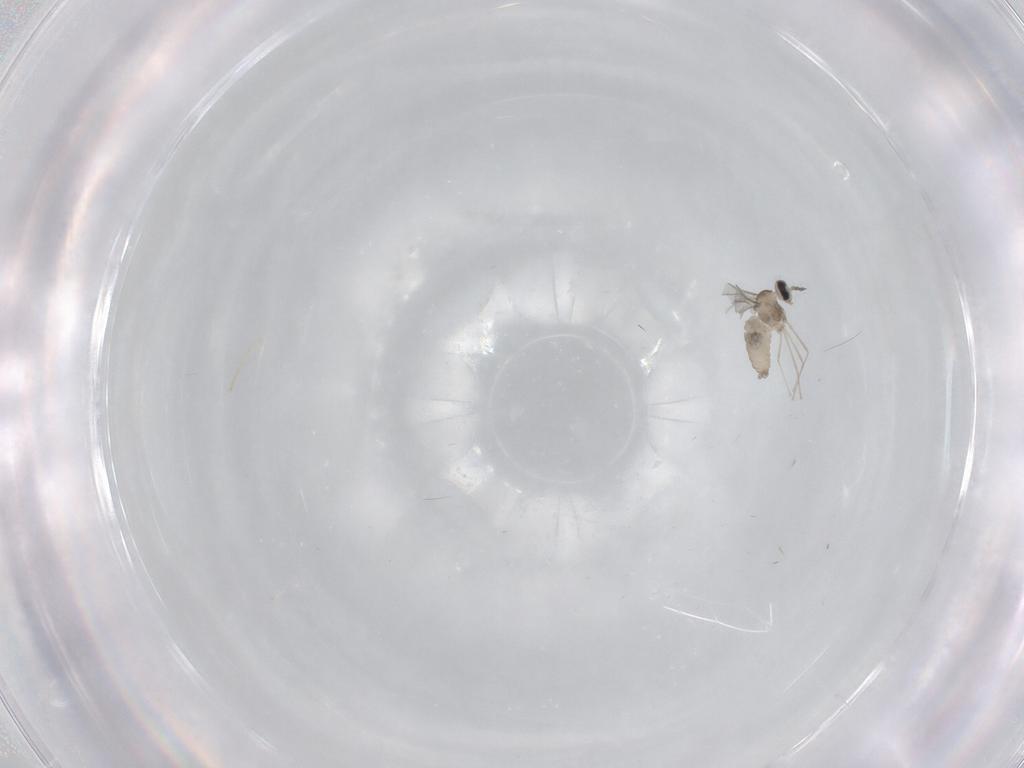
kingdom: Animalia
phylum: Arthropoda
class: Insecta
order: Diptera
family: Cecidomyiidae
